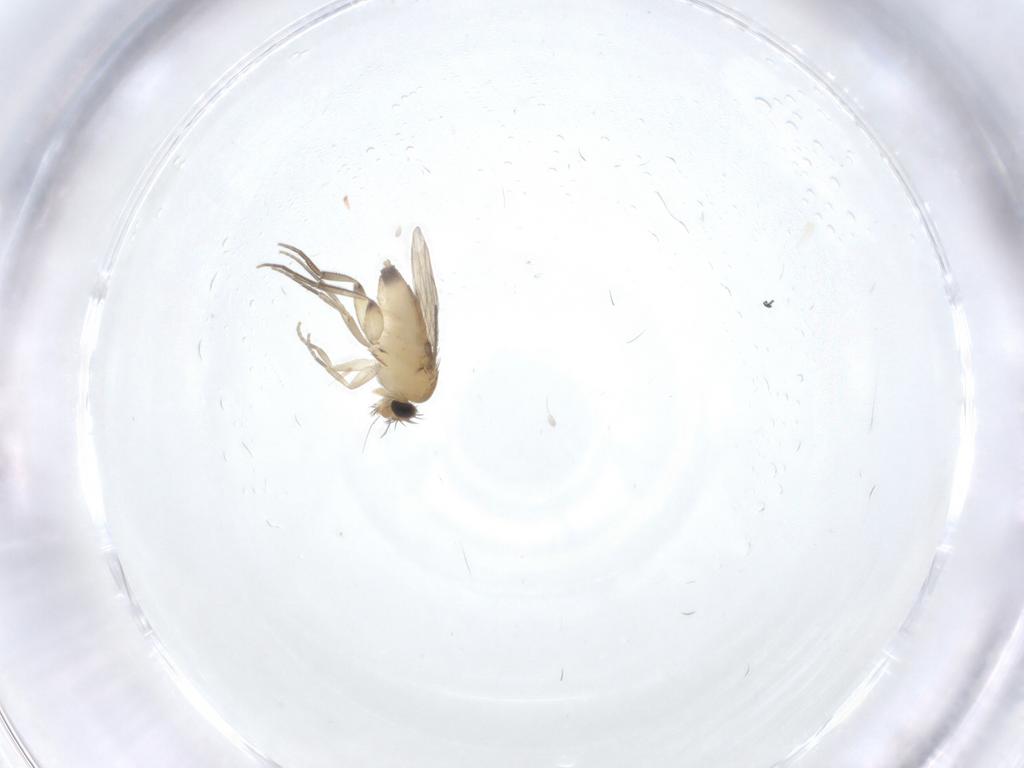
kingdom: Animalia
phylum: Arthropoda
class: Insecta
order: Diptera
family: Phoridae
